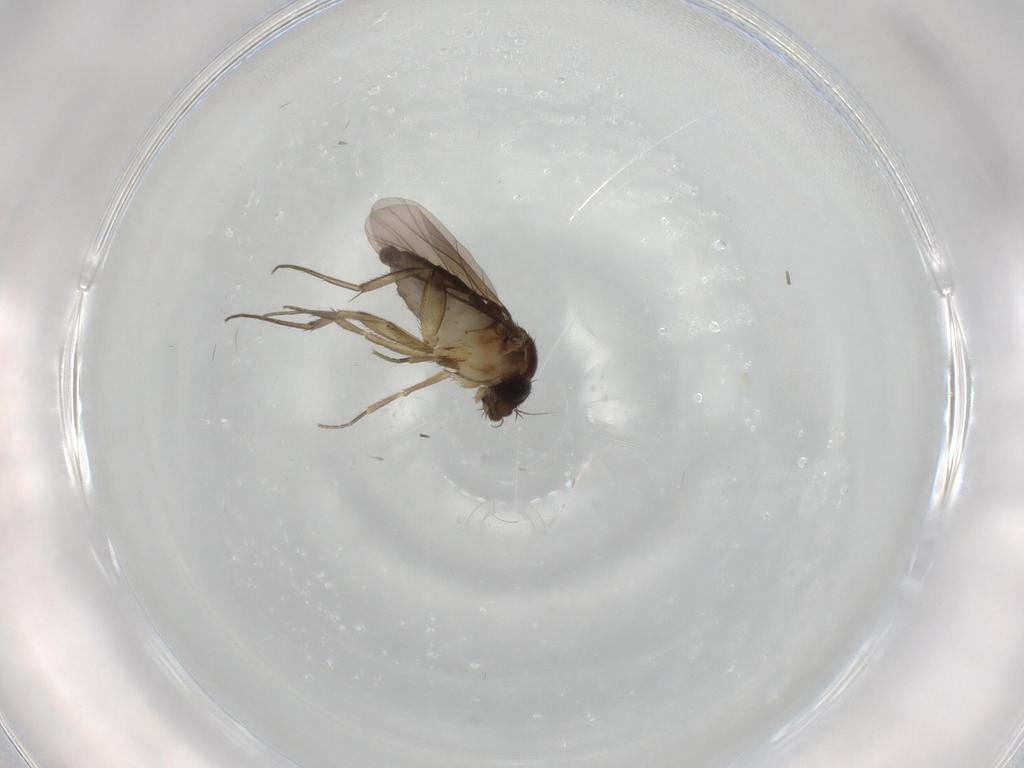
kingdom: Animalia
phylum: Arthropoda
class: Insecta
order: Diptera
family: Phoridae
